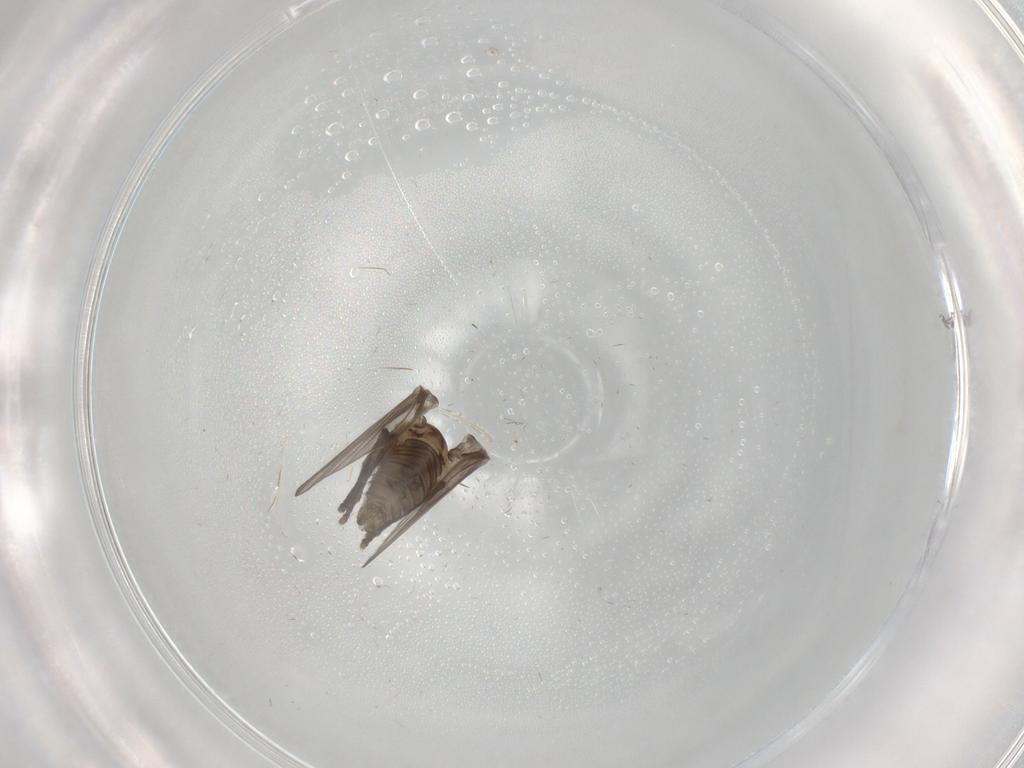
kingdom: Animalia
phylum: Arthropoda
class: Insecta
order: Diptera
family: Psychodidae
